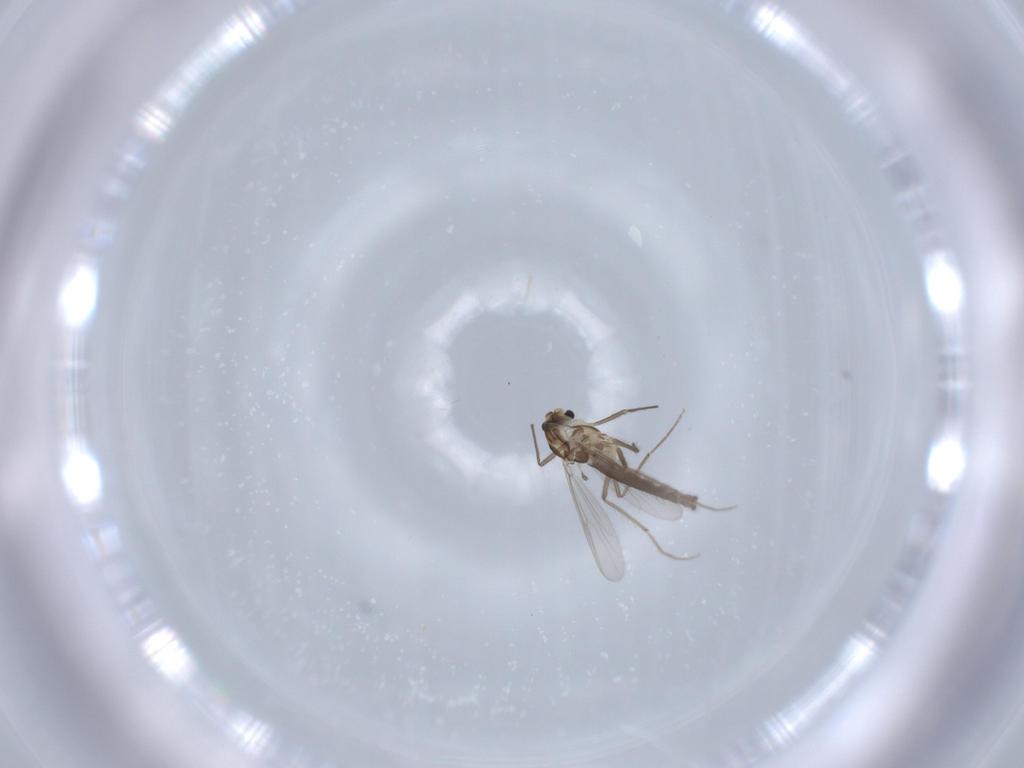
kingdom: Animalia
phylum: Arthropoda
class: Insecta
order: Diptera
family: Chironomidae
